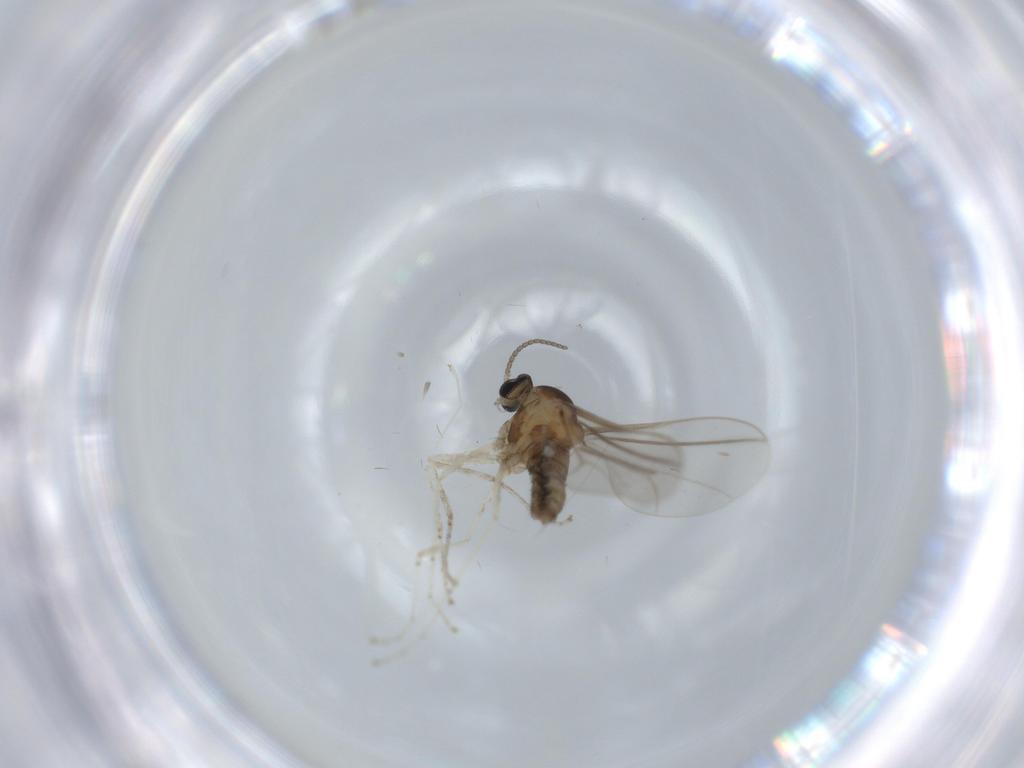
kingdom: Animalia
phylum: Arthropoda
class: Insecta
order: Diptera
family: Cecidomyiidae
